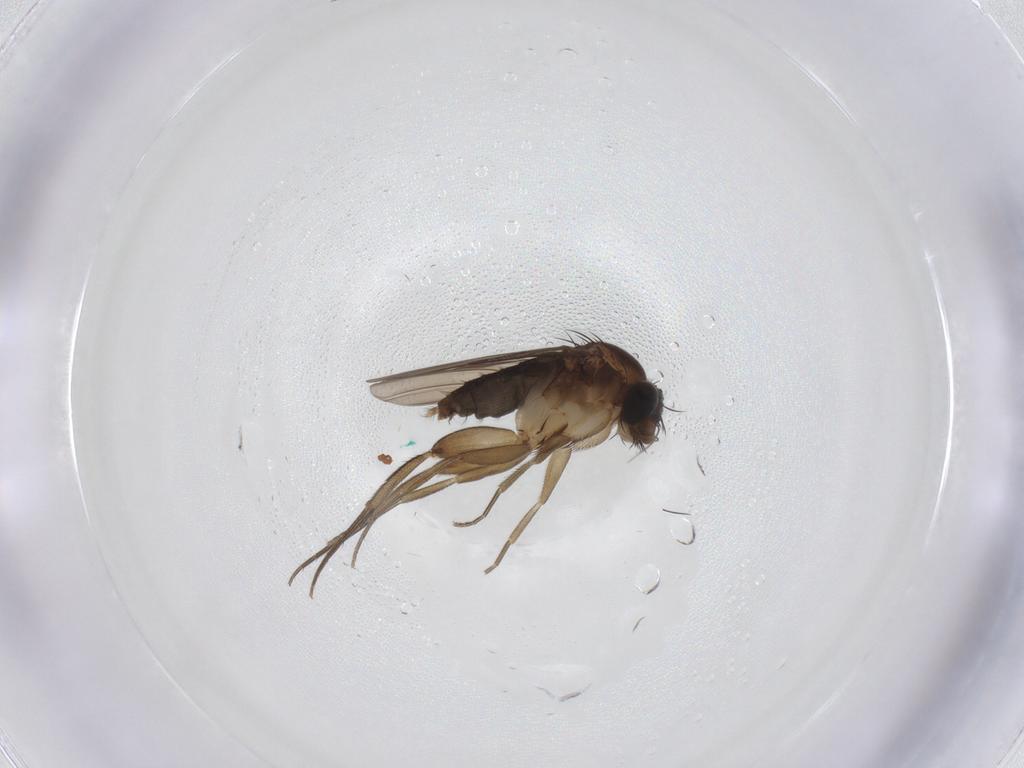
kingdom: Animalia
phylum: Arthropoda
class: Insecta
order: Diptera
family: Phoridae
